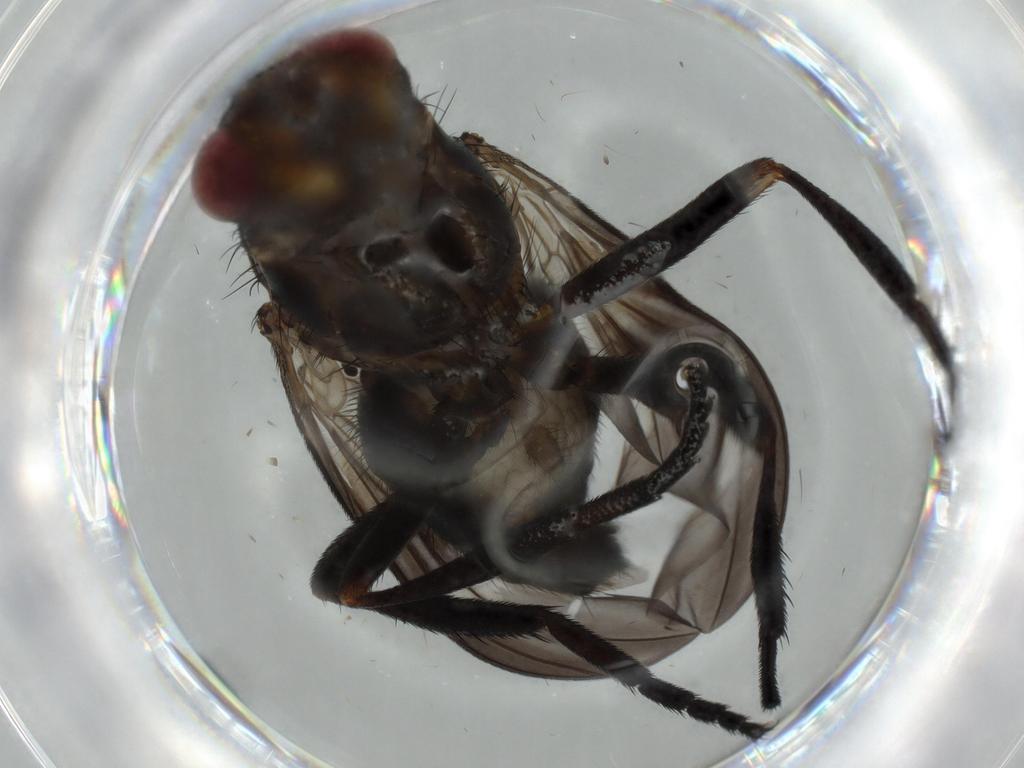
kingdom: Animalia
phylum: Arthropoda
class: Insecta
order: Diptera
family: Calliphoridae
